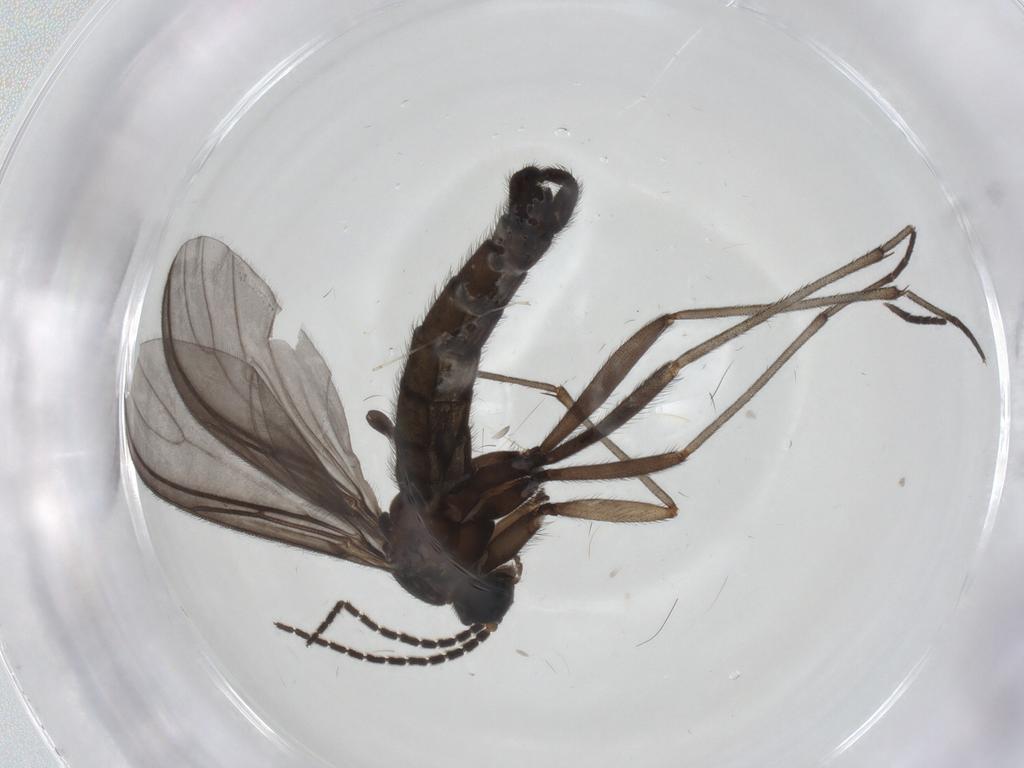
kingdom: Animalia
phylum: Arthropoda
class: Insecta
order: Diptera
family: Sciaridae
